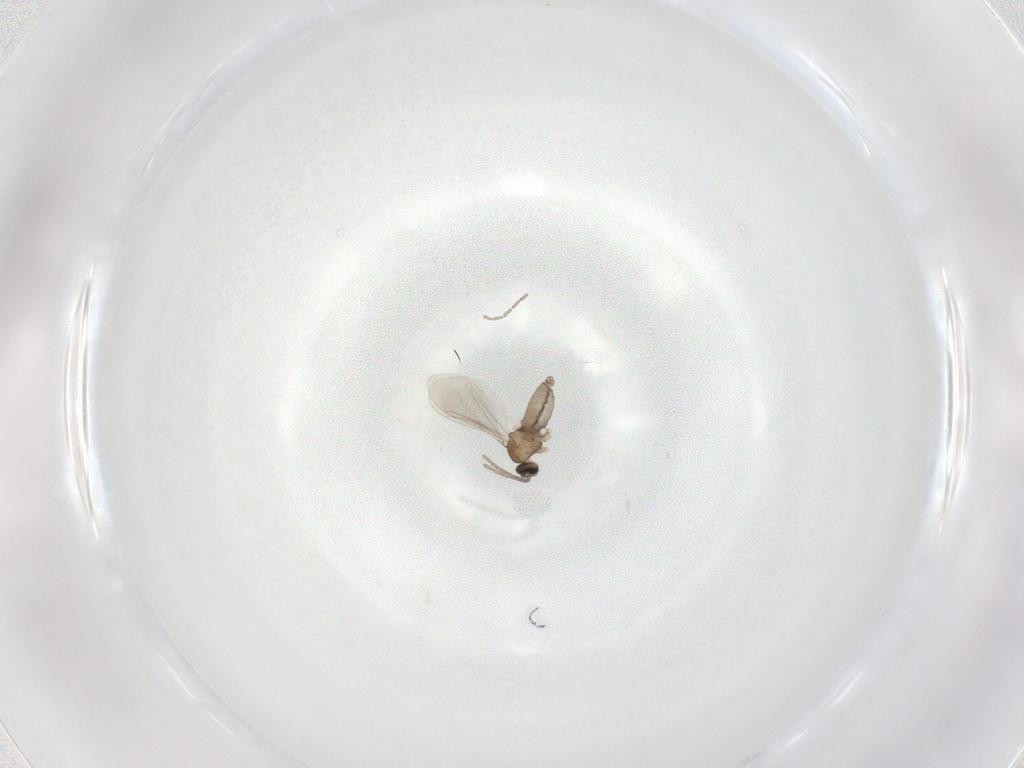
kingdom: Animalia
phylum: Arthropoda
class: Insecta
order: Diptera
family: Cecidomyiidae
